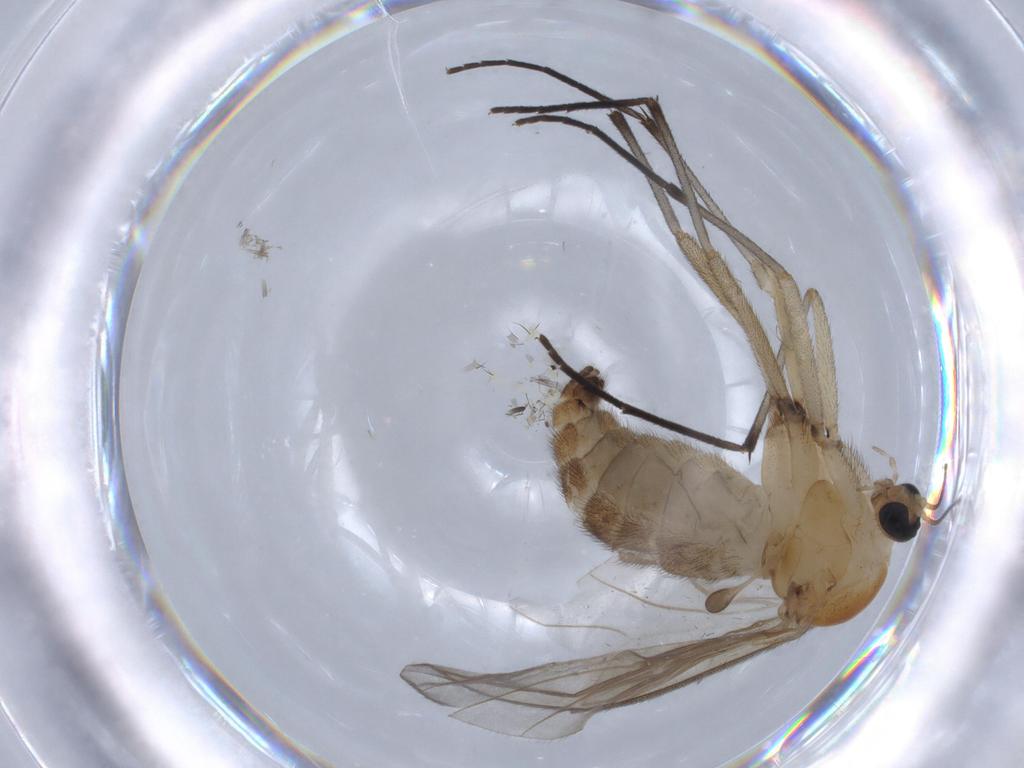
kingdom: Animalia
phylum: Arthropoda
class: Insecta
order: Diptera
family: Sciaridae
